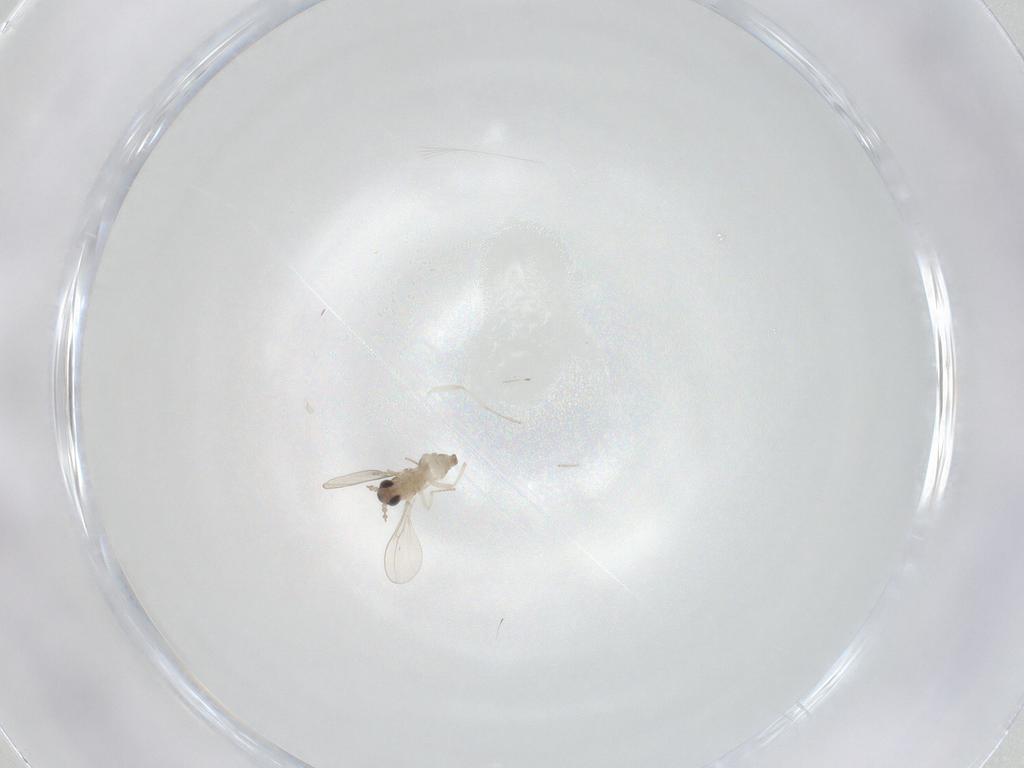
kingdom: Animalia
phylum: Arthropoda
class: Insecta
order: Diptera
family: Cecidomyiidae
